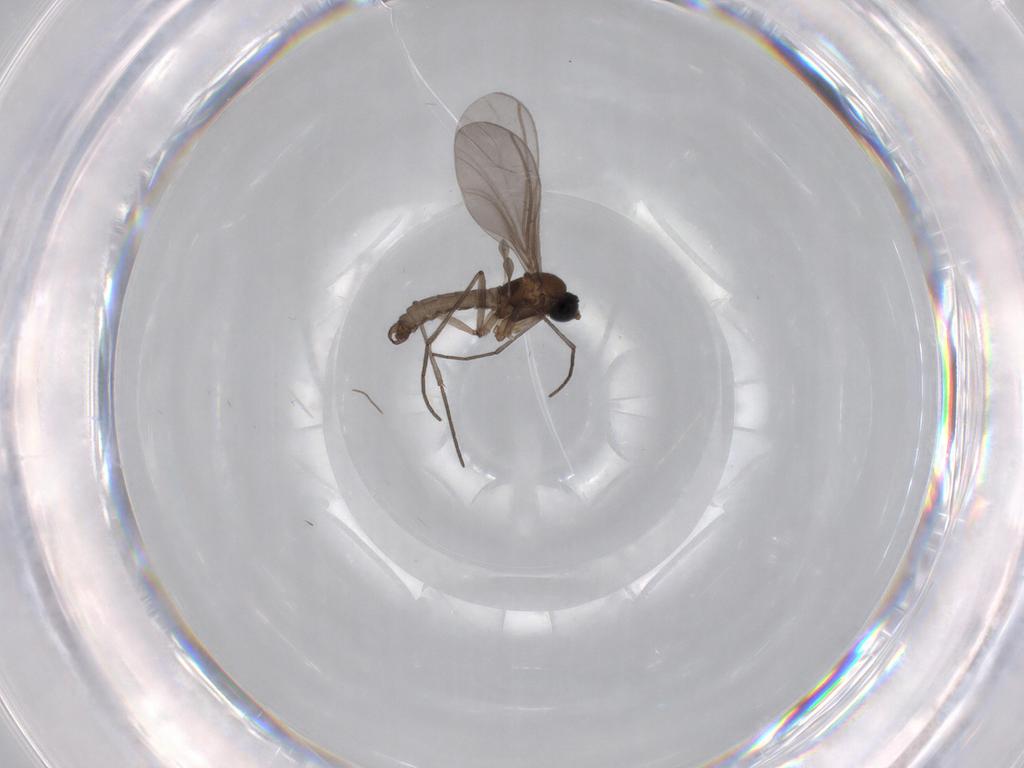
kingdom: Animalia
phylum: Arthropoda
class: Insecta
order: Diptera
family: Sciaridae
